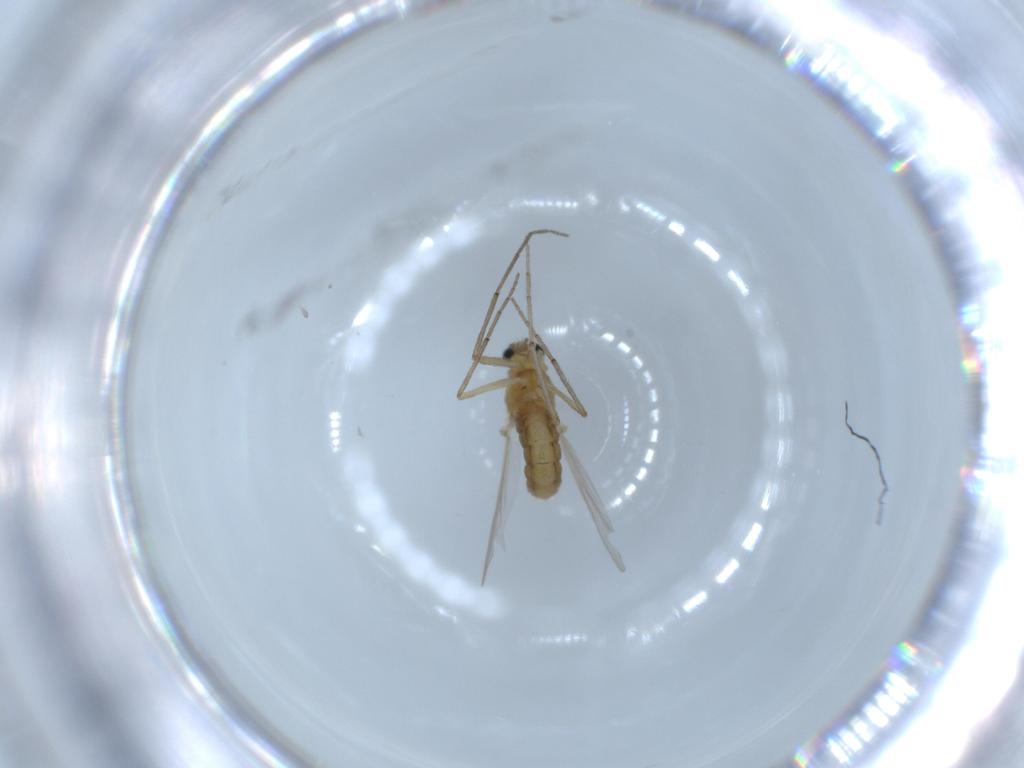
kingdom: Animalia
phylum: Arthropoda
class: Insecta
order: Diptera
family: Chironomidae
